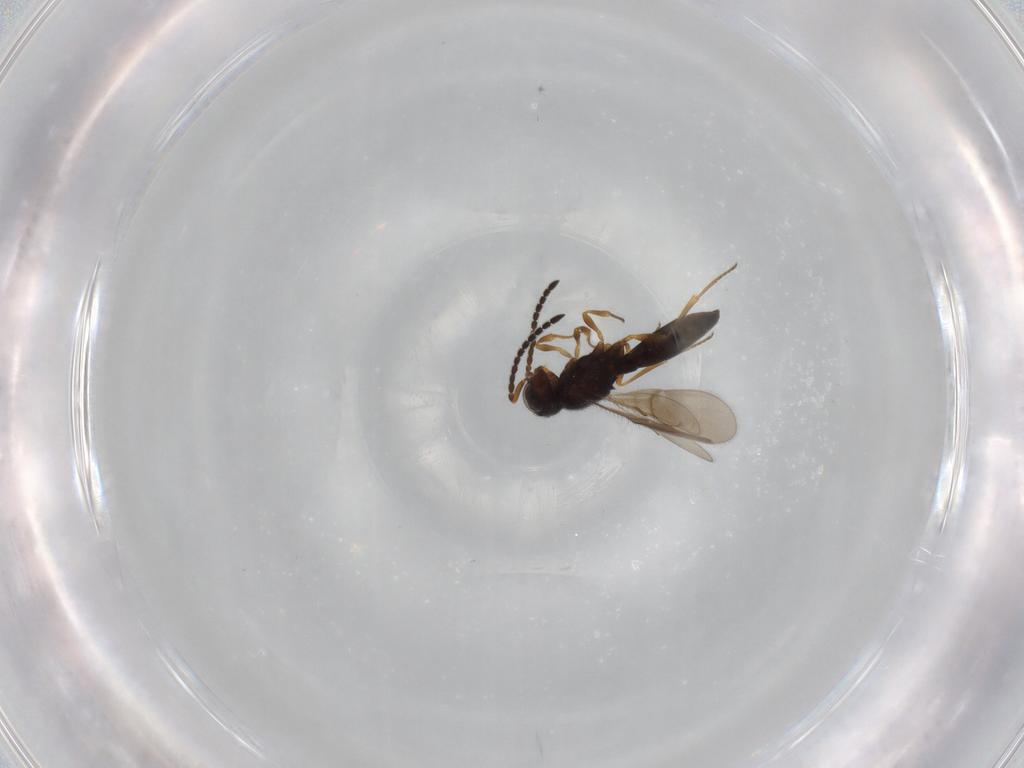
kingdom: Animalia
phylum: Arthropoda
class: Insecta
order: Hymenoptera
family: Scelionidae
